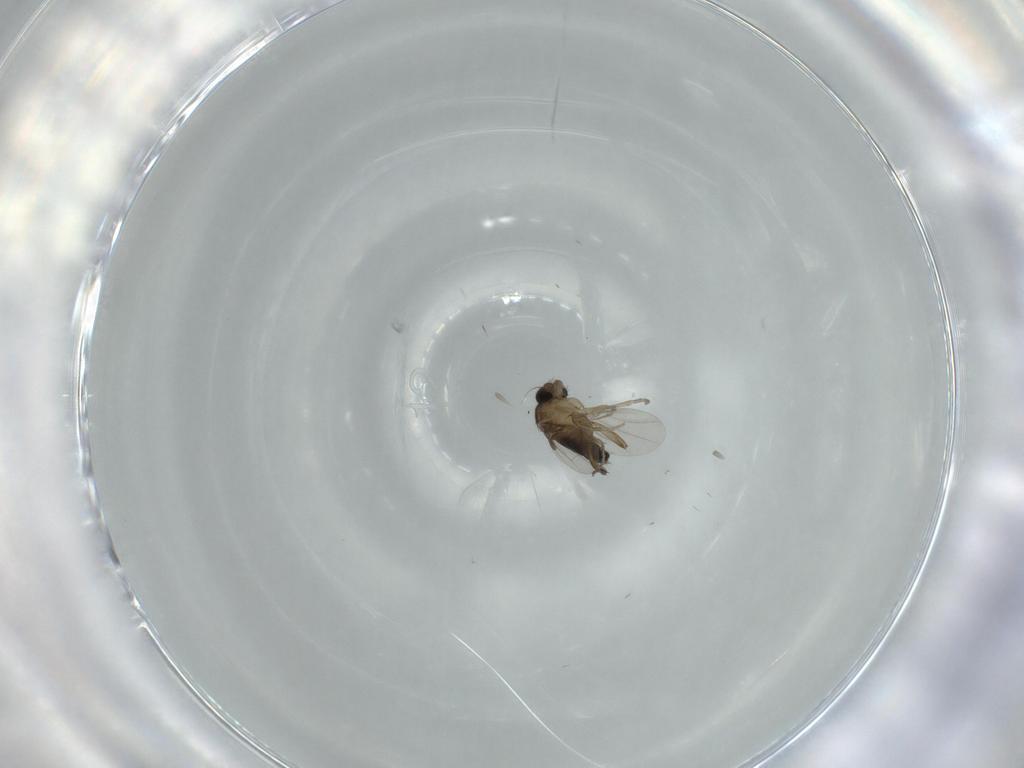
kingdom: Animalia
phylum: Arthropoda
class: Insecta
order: Diptera
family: Phoridae
